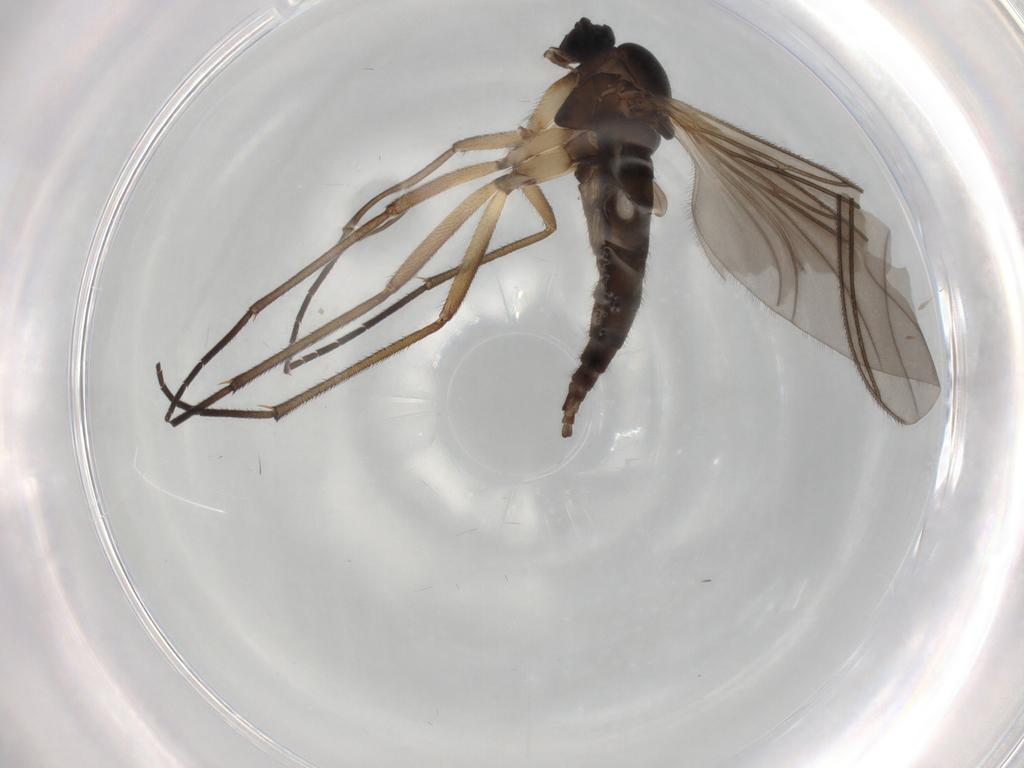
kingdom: Animalia
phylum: Arthropoda
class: Insecta
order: Diptera
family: Sciaridae
